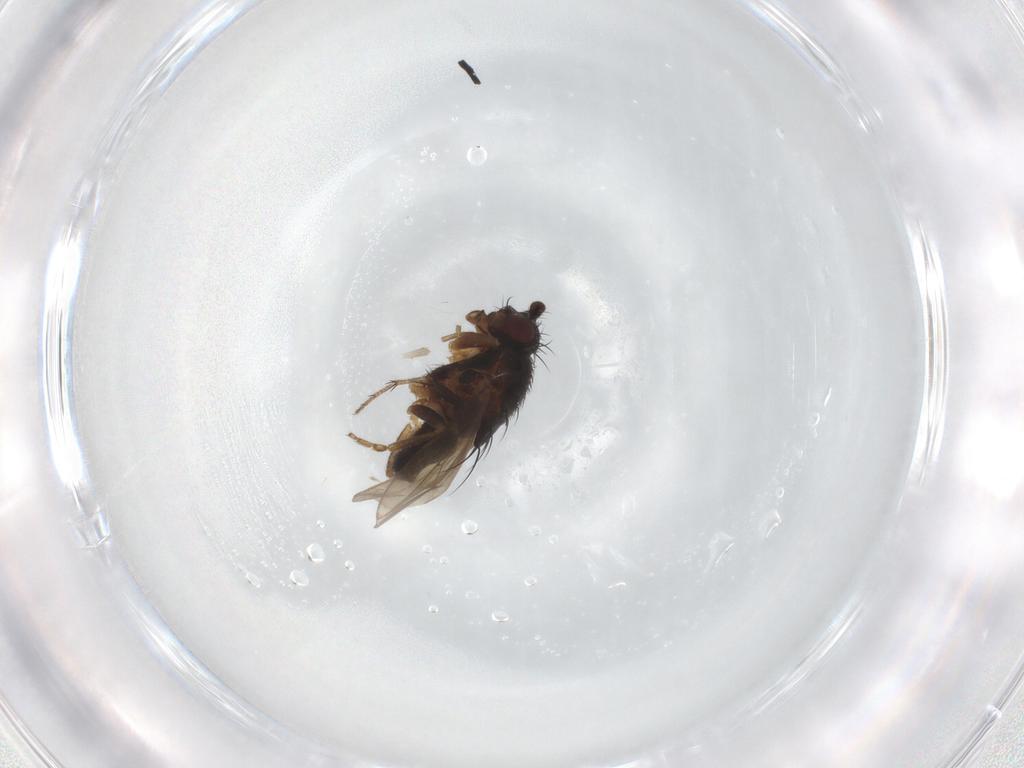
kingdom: Animalia
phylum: Arthropoda
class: Insecta
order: Diptera
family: Sphaeroceridae
